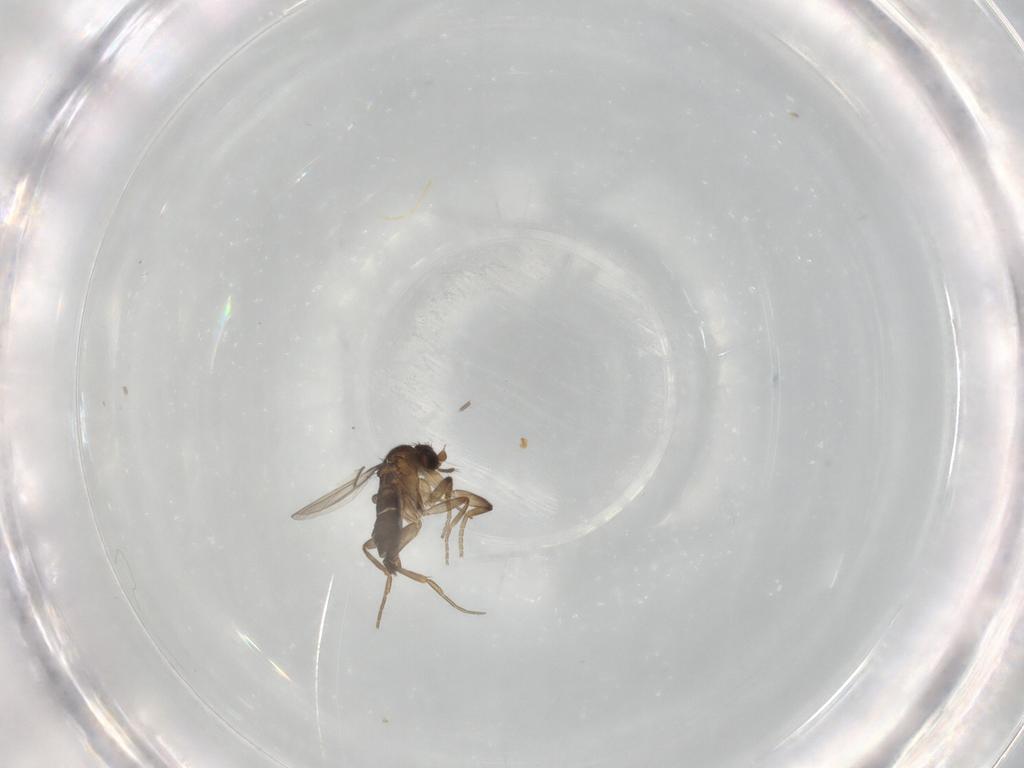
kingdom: Animalia
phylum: Arthropoda
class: Insecta
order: Diptera
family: Phoridae
